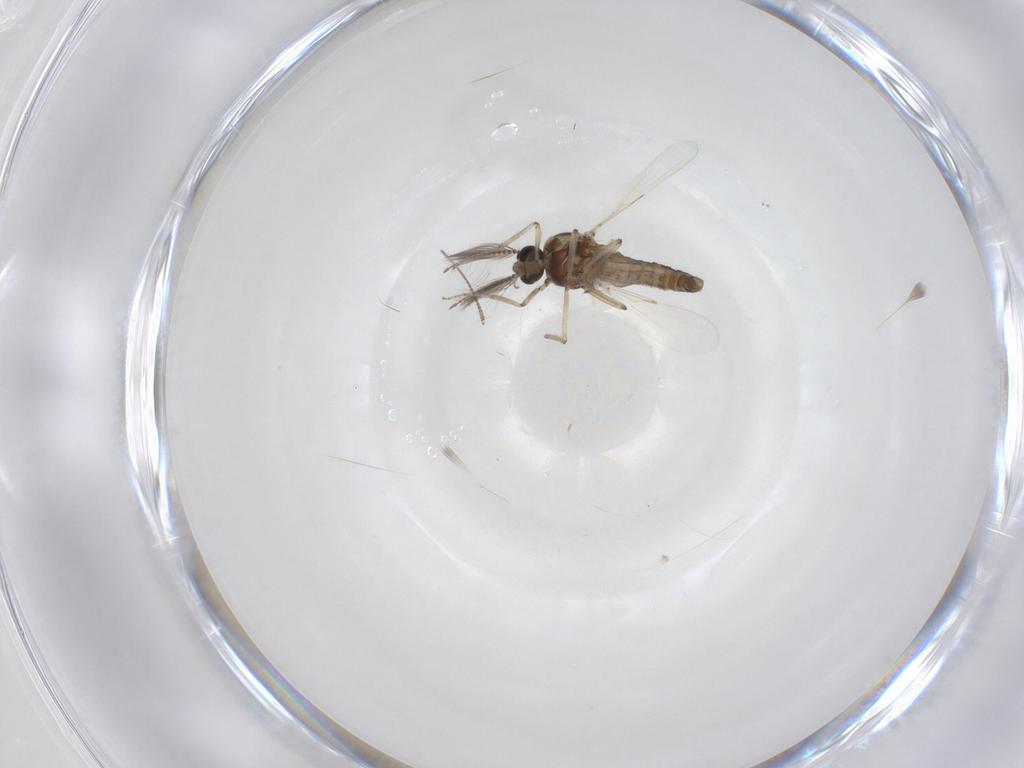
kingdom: Animalia
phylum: Arthropoda
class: Insecta
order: Diptera
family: Ceratopogonidae
